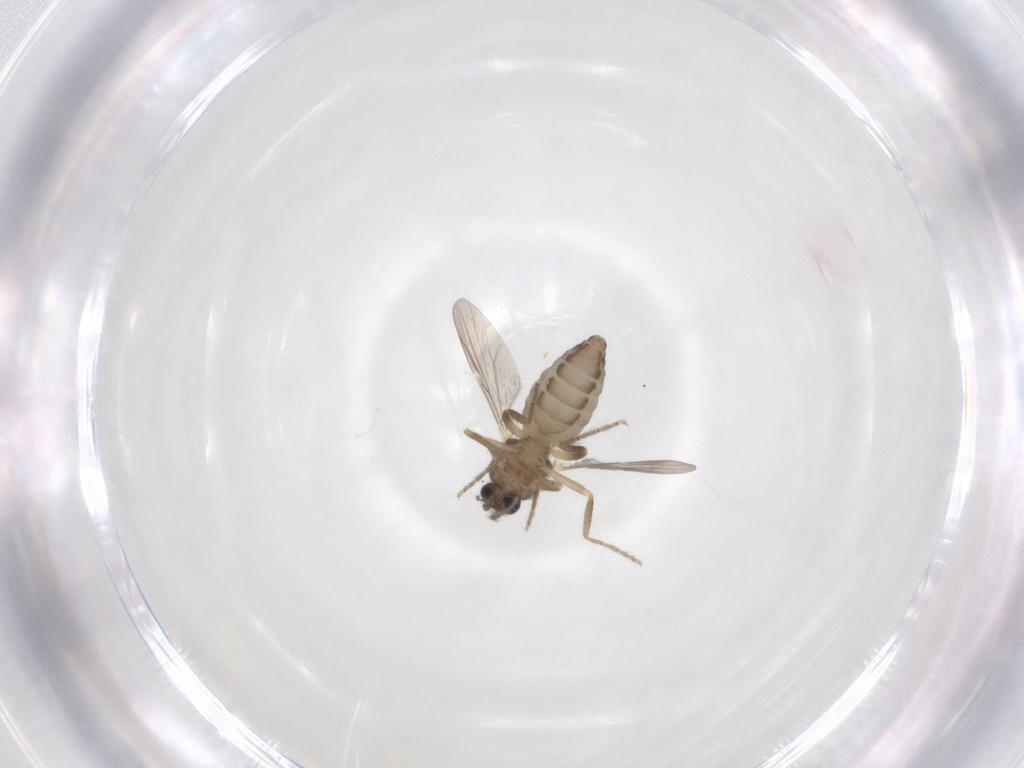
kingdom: Animalia
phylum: Arthropoda
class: Insecta
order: Diptera
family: Ceratopogonidae
